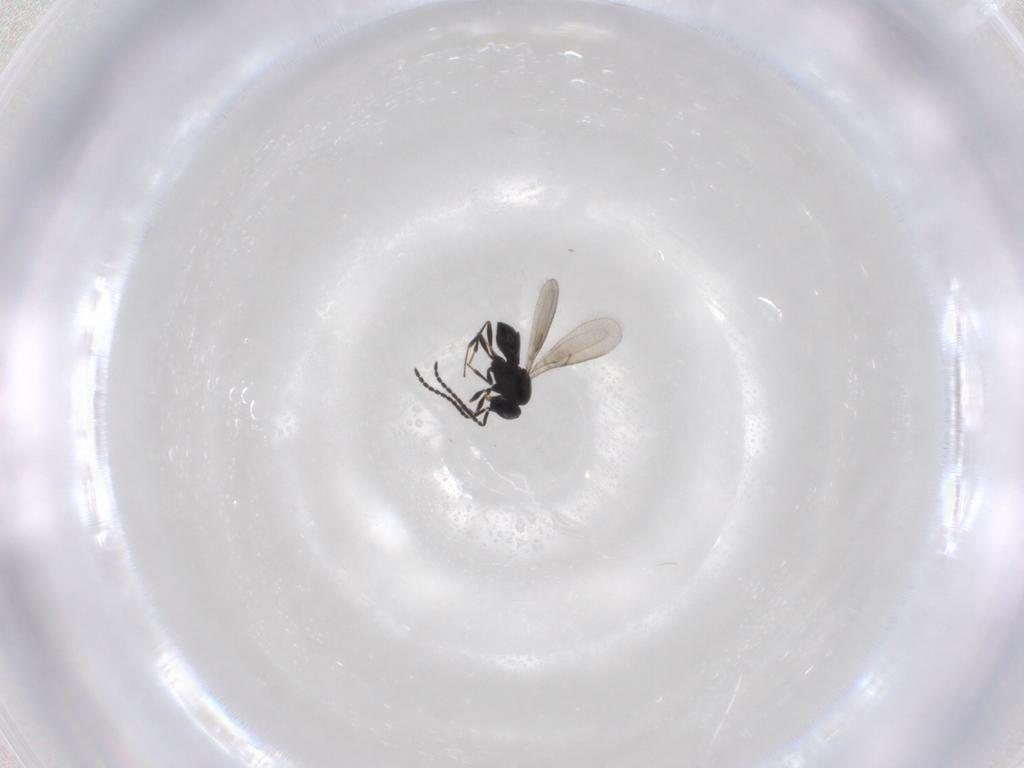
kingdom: Animalia
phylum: Arthropoda
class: Insecta
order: Hymenoptera
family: Scelionidae
